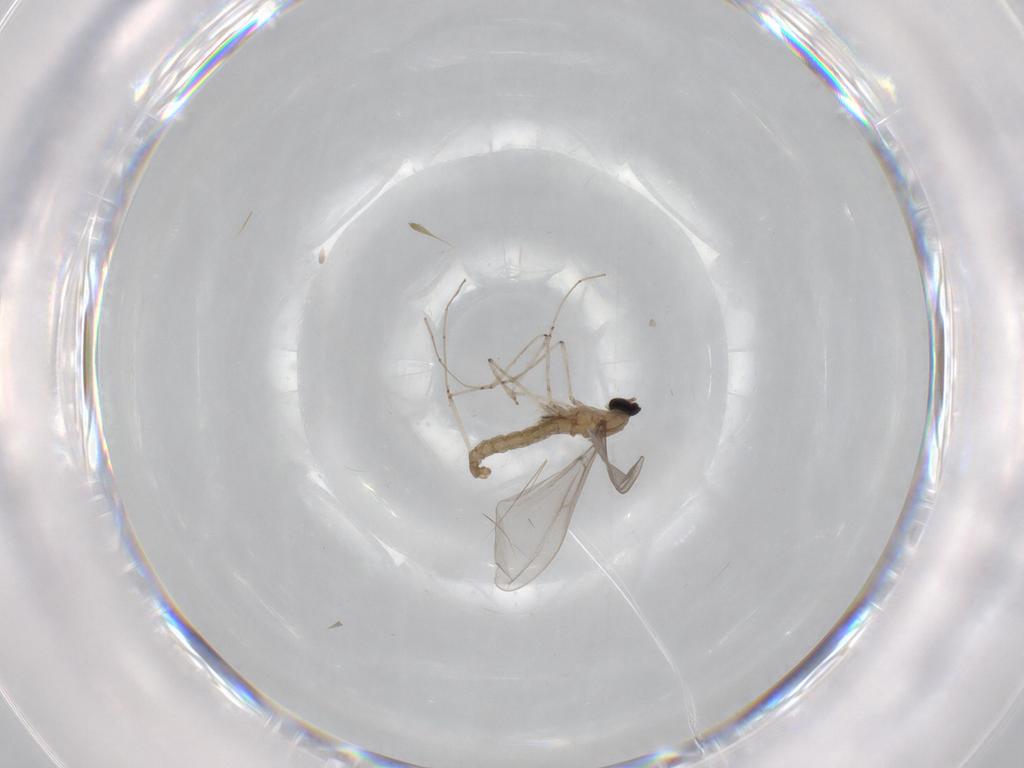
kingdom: Animalia
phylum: Arthropoda
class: Insecta
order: Diptera
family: Cecidomyiidae
